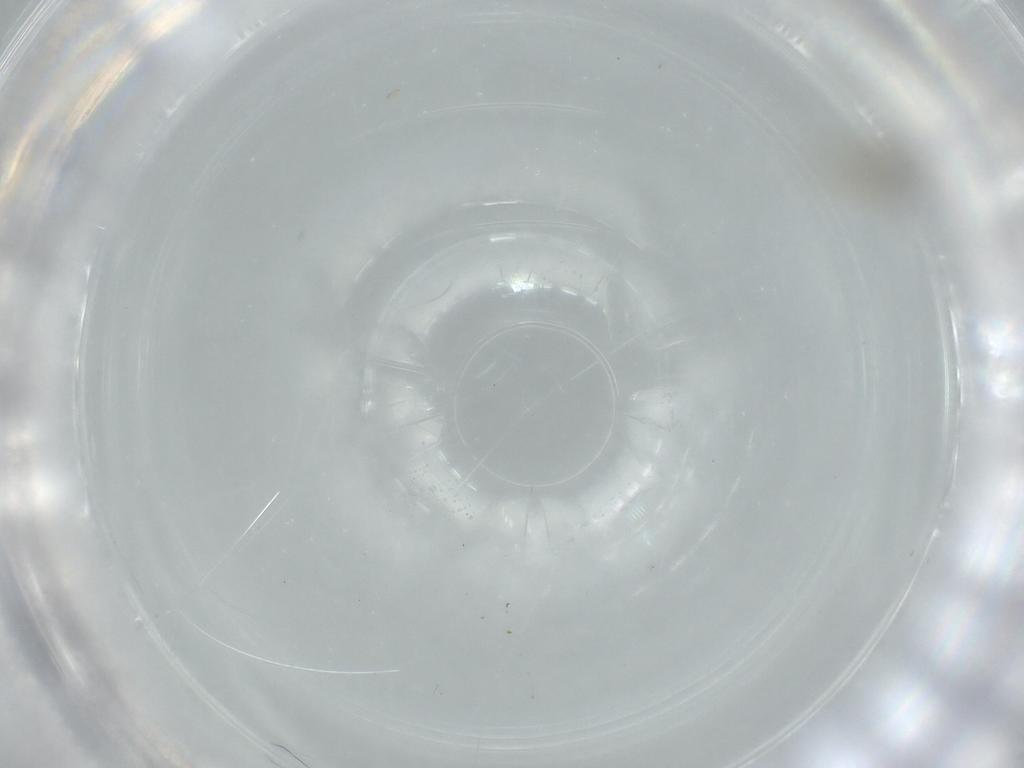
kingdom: Animalia
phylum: Arthropoda
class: Insecta
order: Diptera
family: Cecidomyiidae
